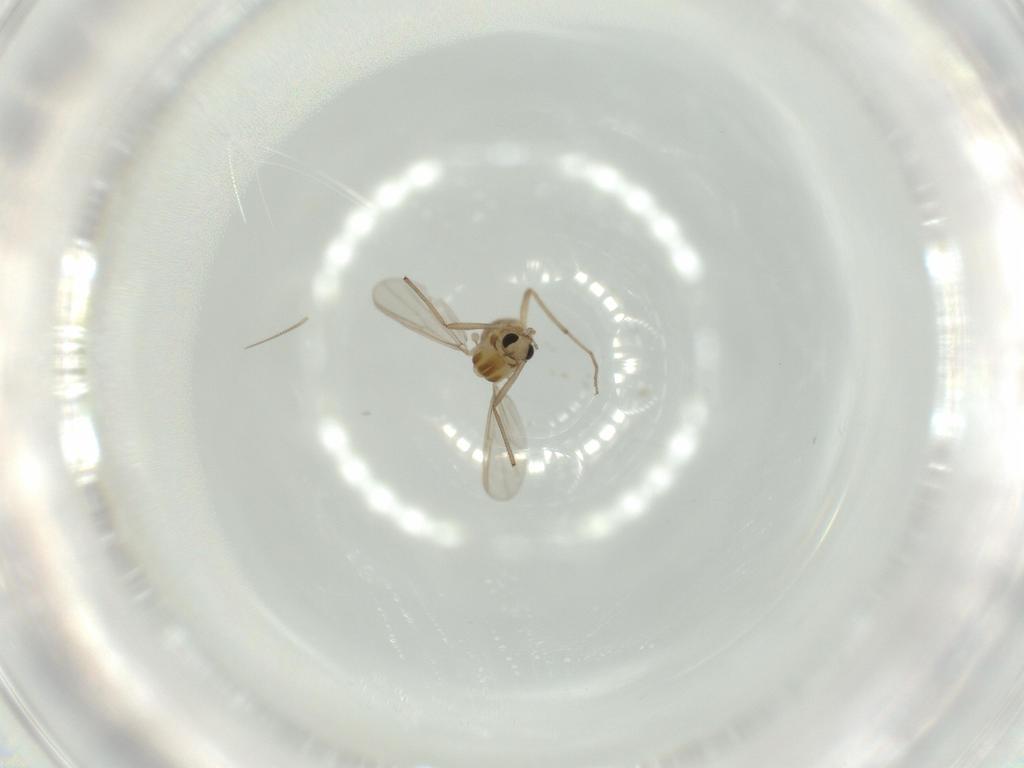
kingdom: Animalia
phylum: Arthropoda
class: Insecta
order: Diptera
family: Chironomidae
